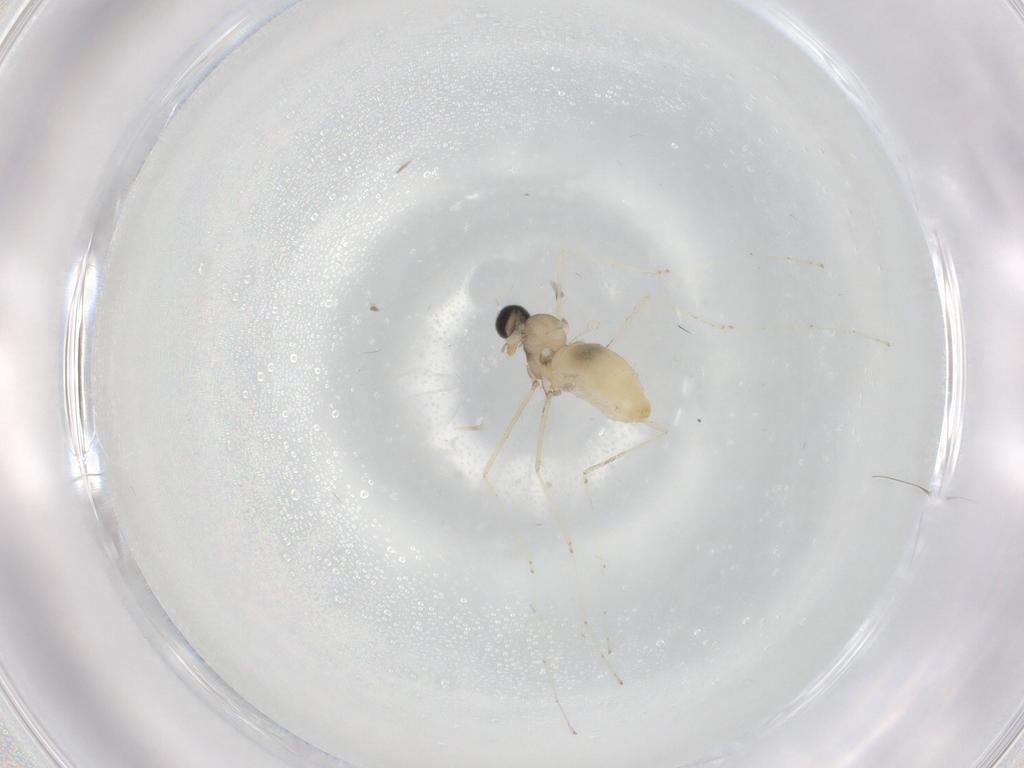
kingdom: Animalia
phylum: Arthropoda
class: Insecta
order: Diptera
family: Cecidomyiidae
